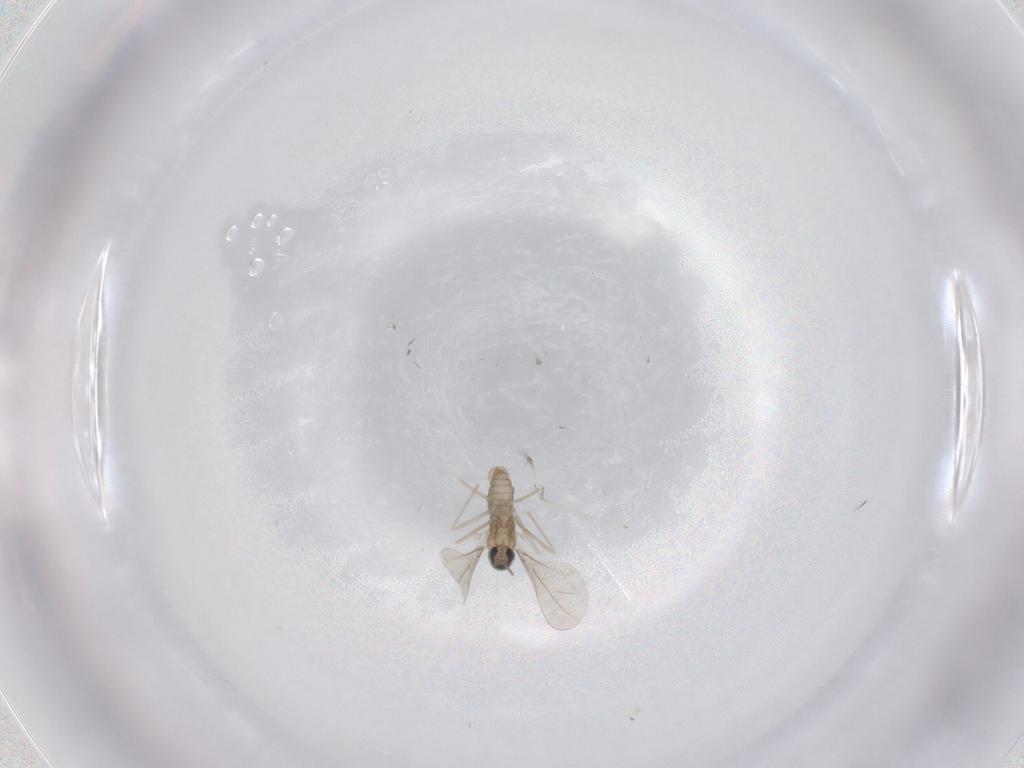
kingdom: Animalia
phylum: Arthropoda
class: Insecta
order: Diptera
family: Cecidomyiidae
